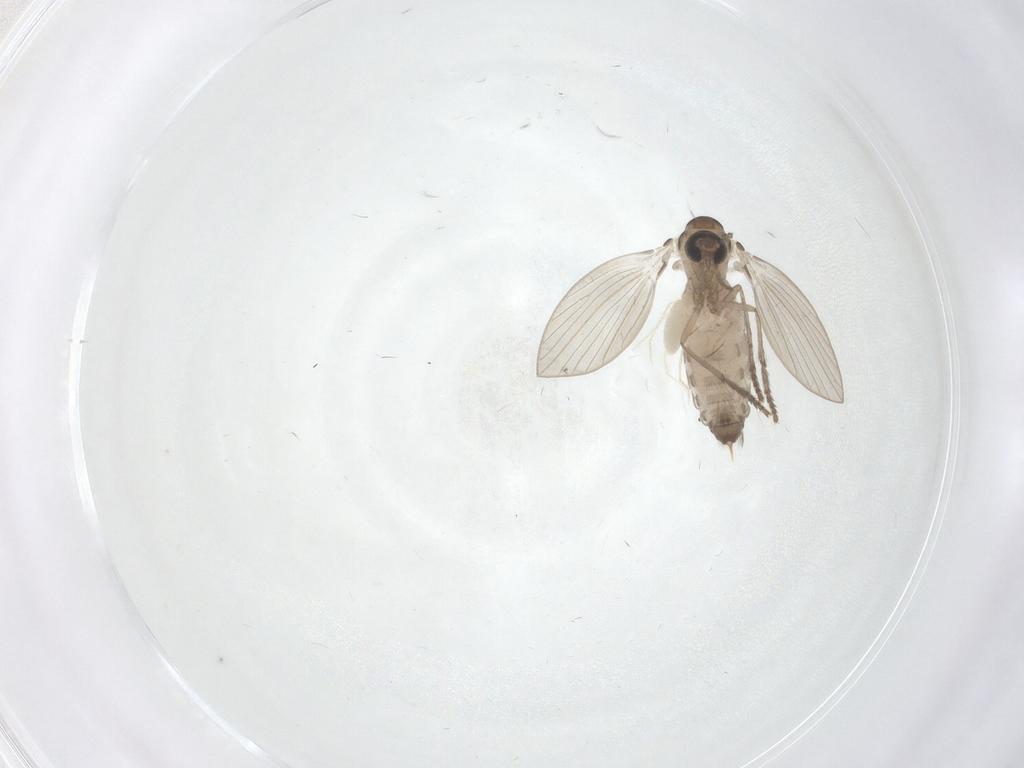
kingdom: Animalia
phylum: Arthropoda
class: Insecta
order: Diptera
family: Psychodidae
